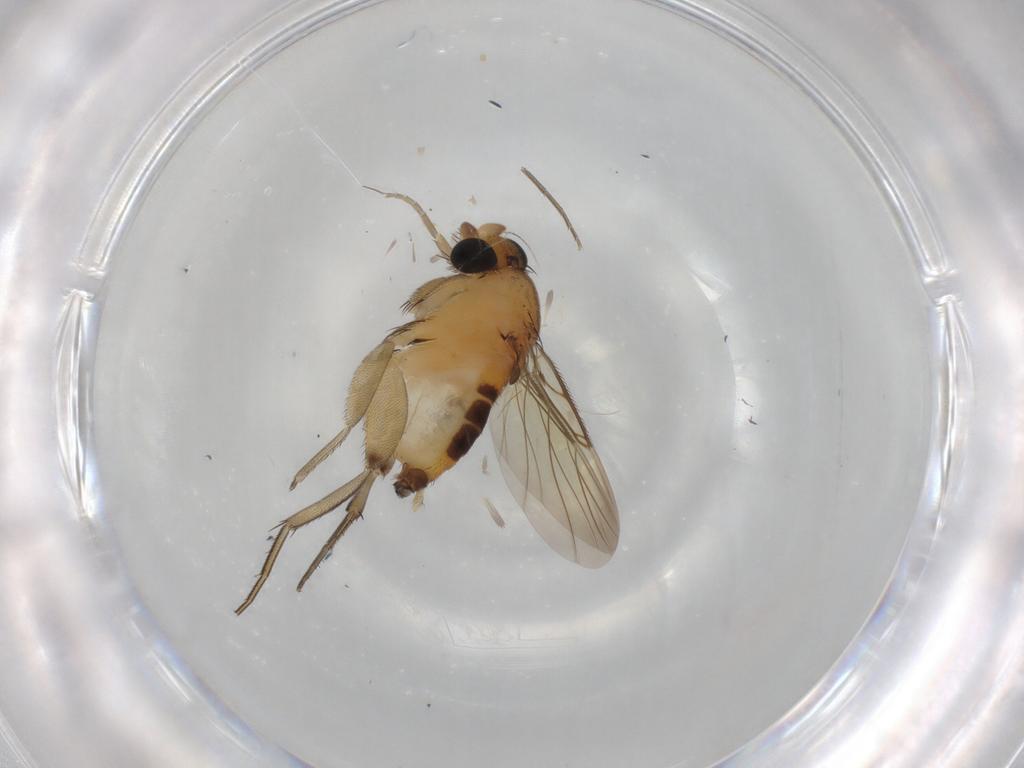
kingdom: Animalia
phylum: Arthropoda
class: Insecta
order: Diptera
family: Phoridae
